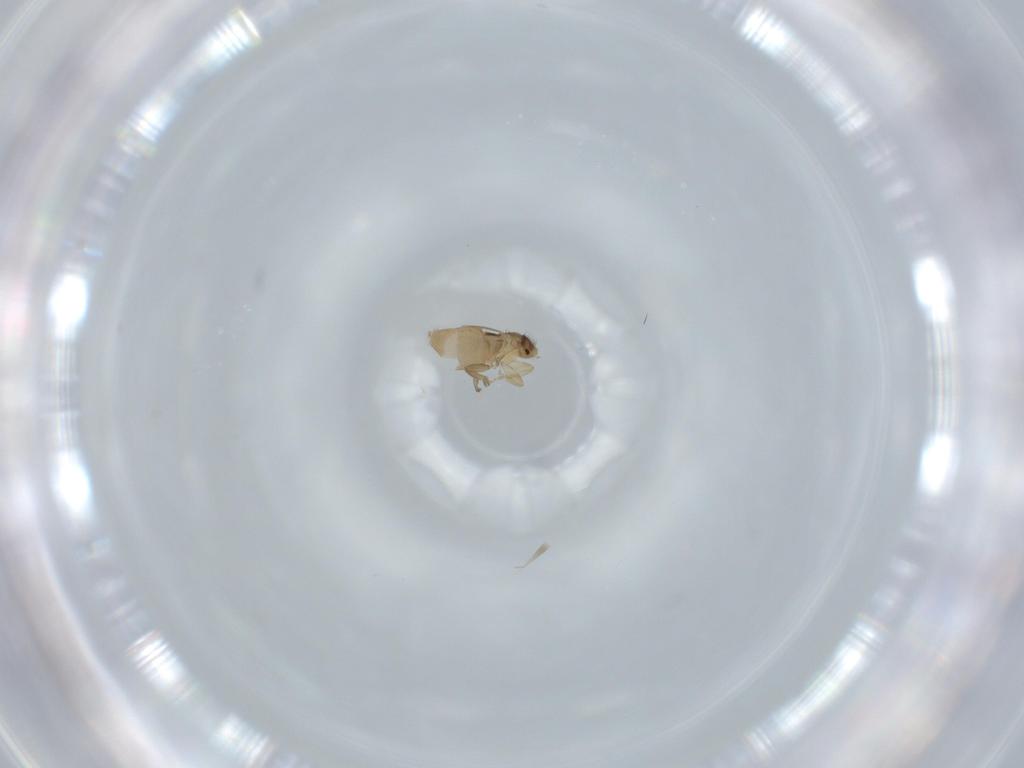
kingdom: Animalia
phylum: Arthropoda
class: Insecta
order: Diptera
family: Phoridae
